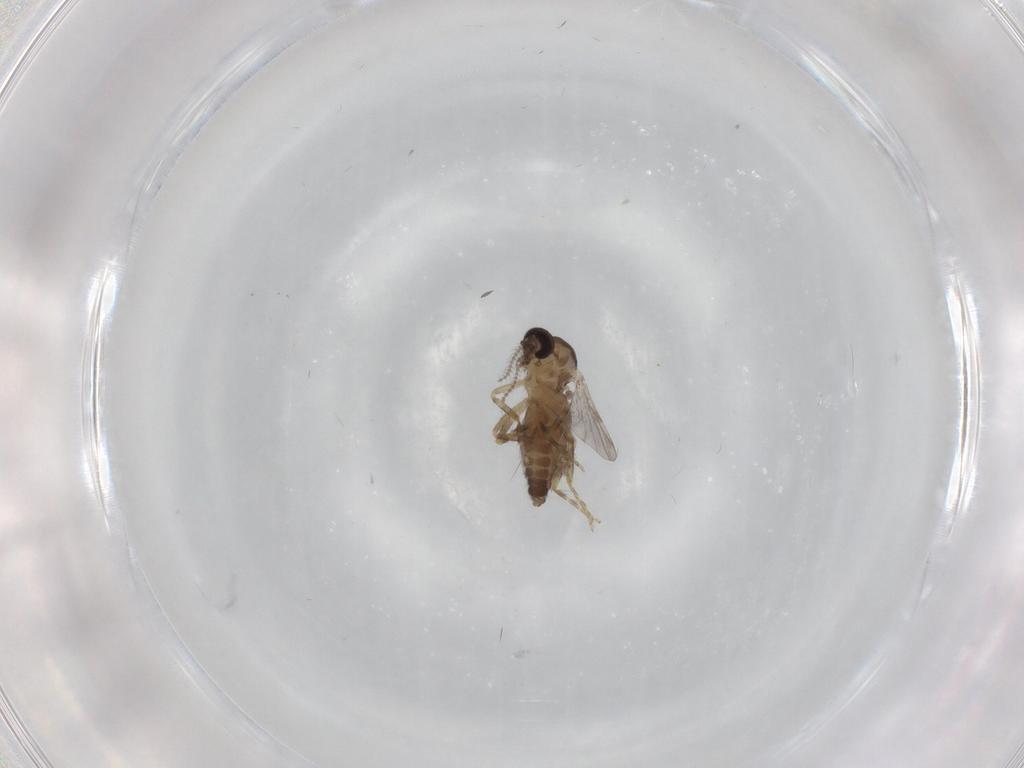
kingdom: Animalia
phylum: Arthropoda
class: Insecta
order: Diptera
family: Ceratopogonidae
